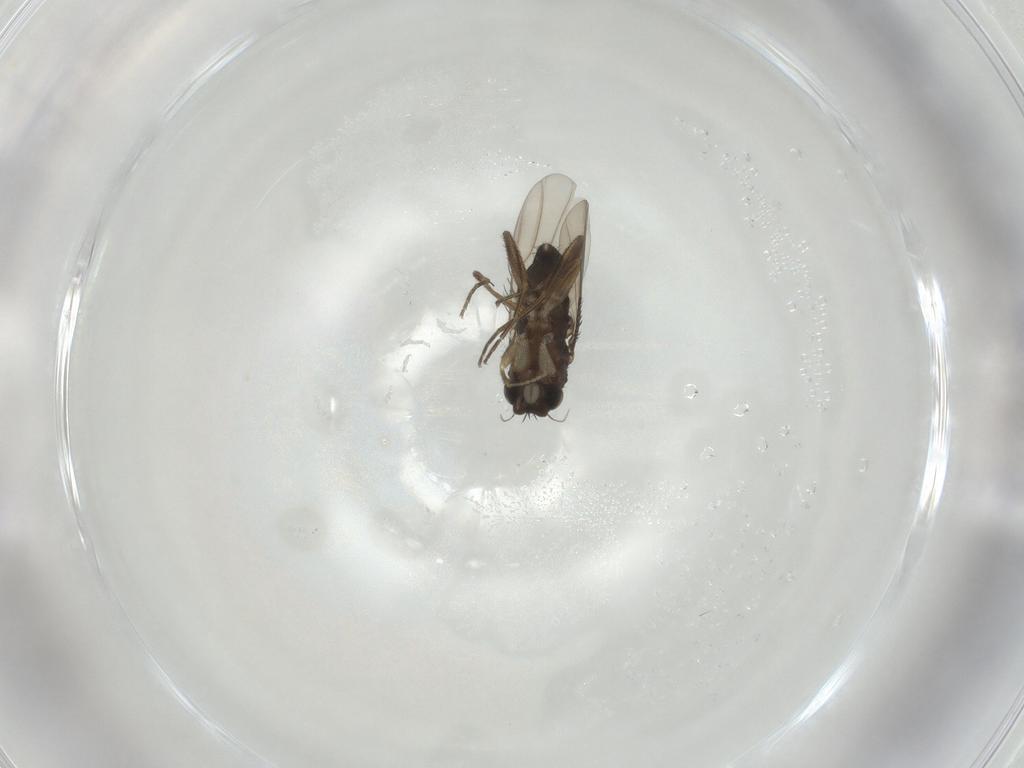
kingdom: Animalia
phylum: Arthropoda
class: Insecta
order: Diptera
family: Phoridae
